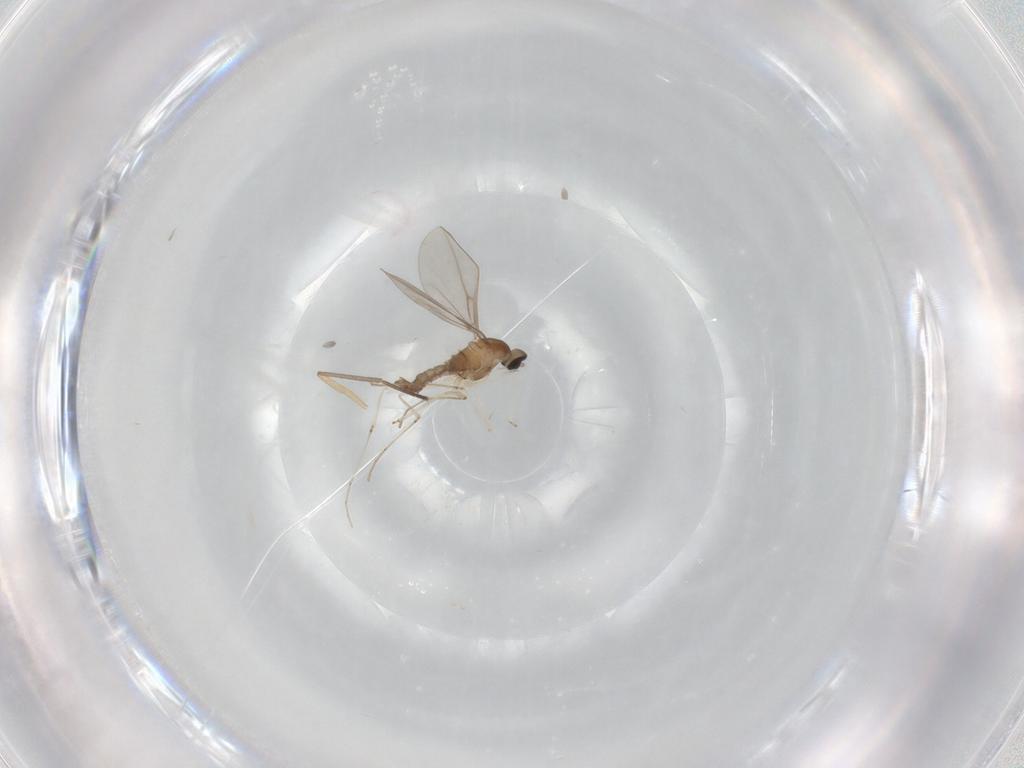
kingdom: Animalia
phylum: Arthropoda
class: Insecta
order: Diptera
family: Cecidomyiidae
